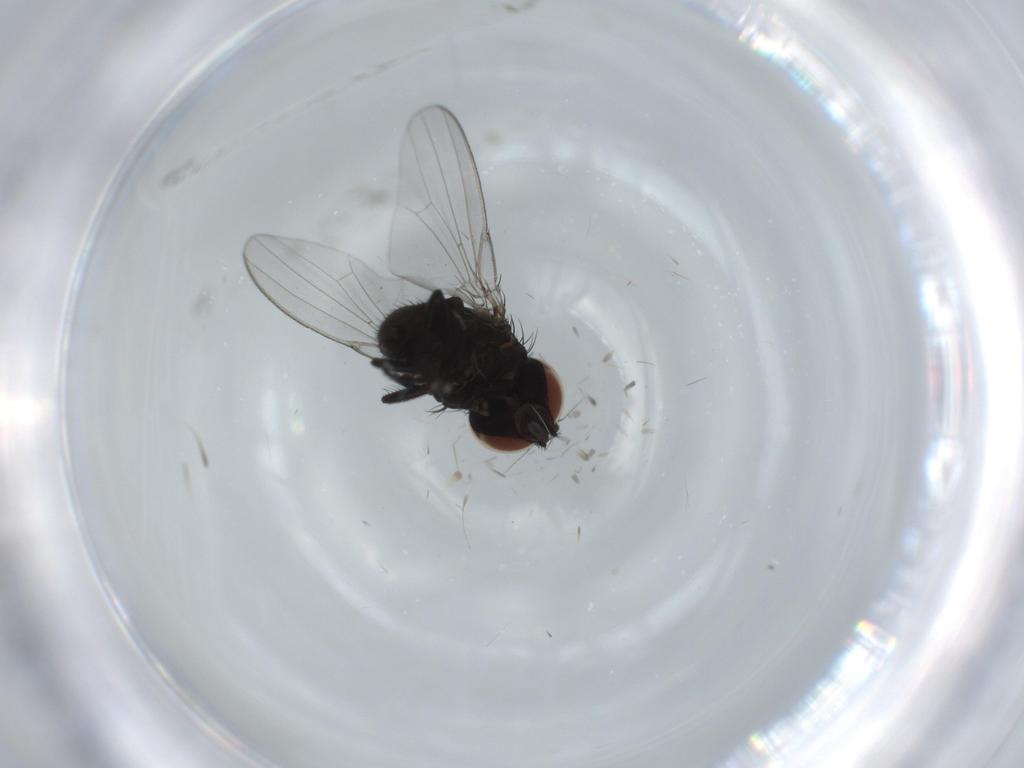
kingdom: Animalia
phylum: Arthropoda
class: Insecta
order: Diptera
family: Milichiidae
